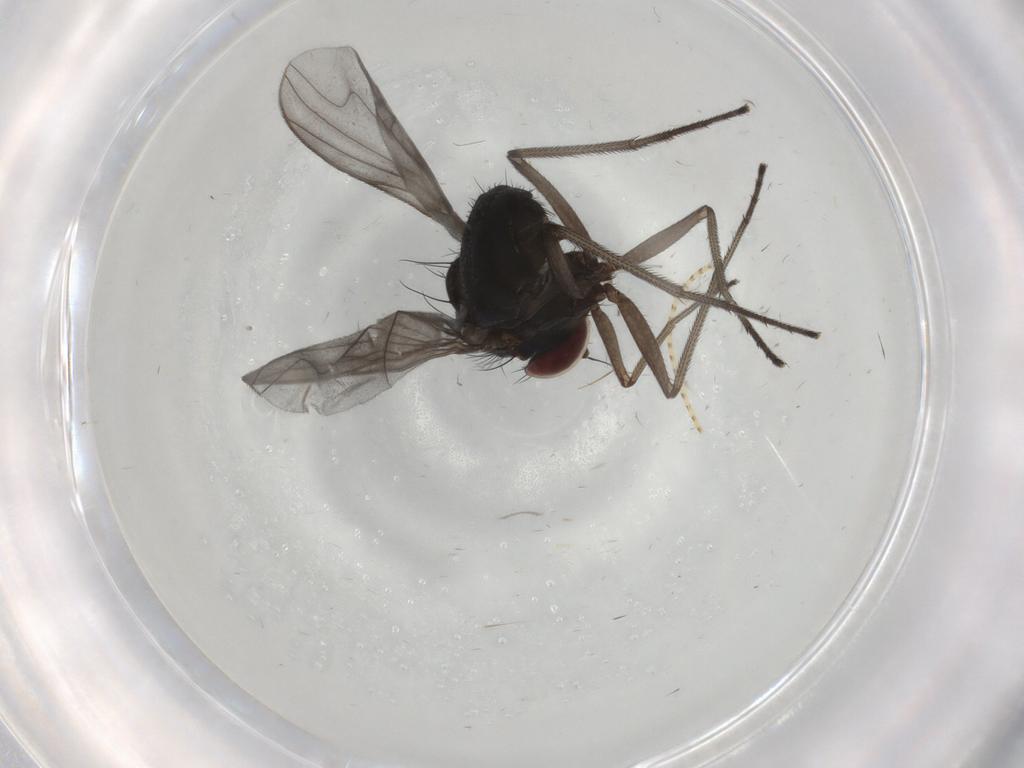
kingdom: Animalia
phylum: Arthropoda
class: Insecta
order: Diptera
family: Dolichopodidae
